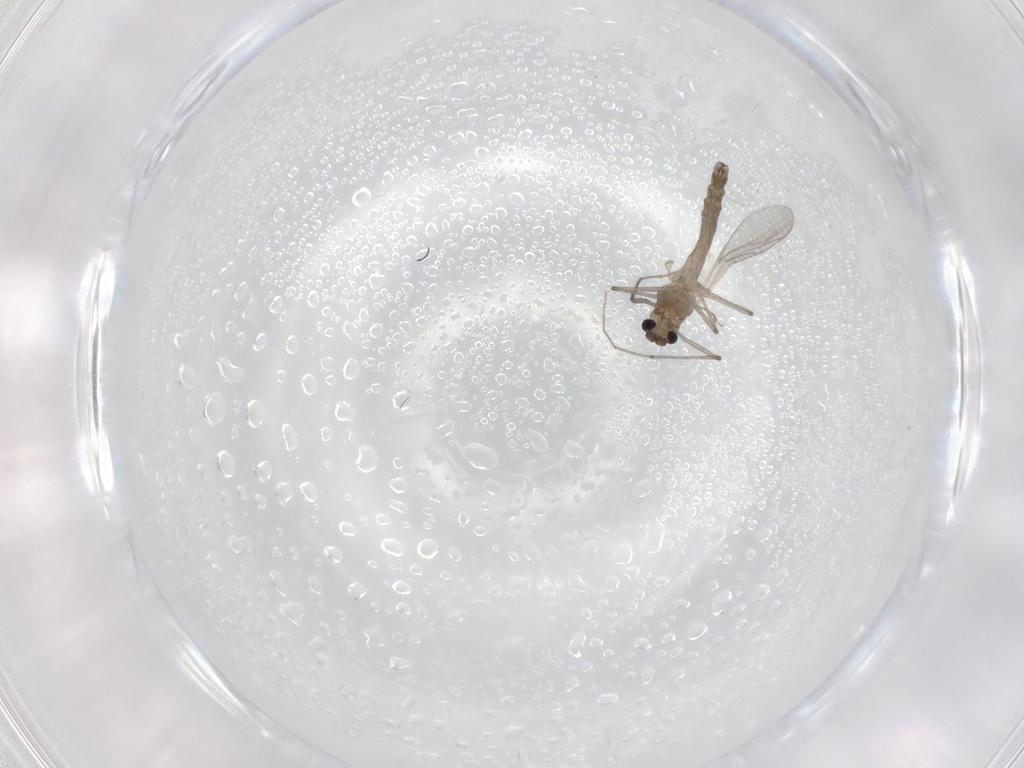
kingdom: Animalia
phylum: Arthropoda
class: Insecta
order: Diptera
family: Chironomidae
